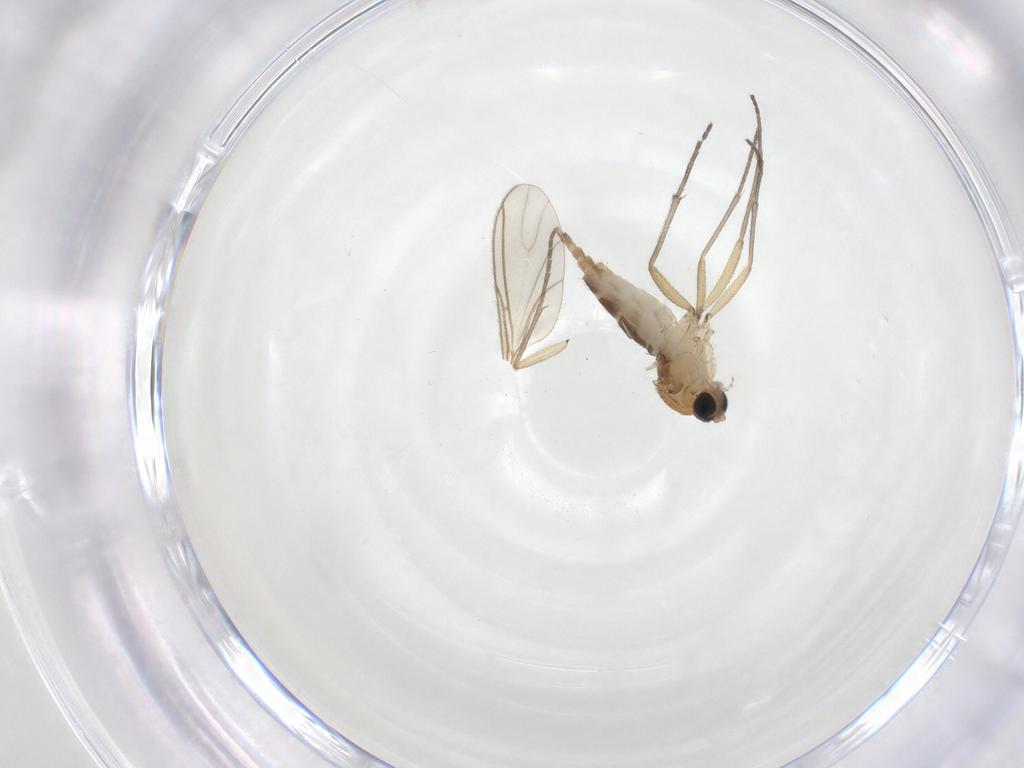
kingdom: Animalia
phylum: Arthropoda
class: Insecta
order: Diptera
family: Sciaridae
